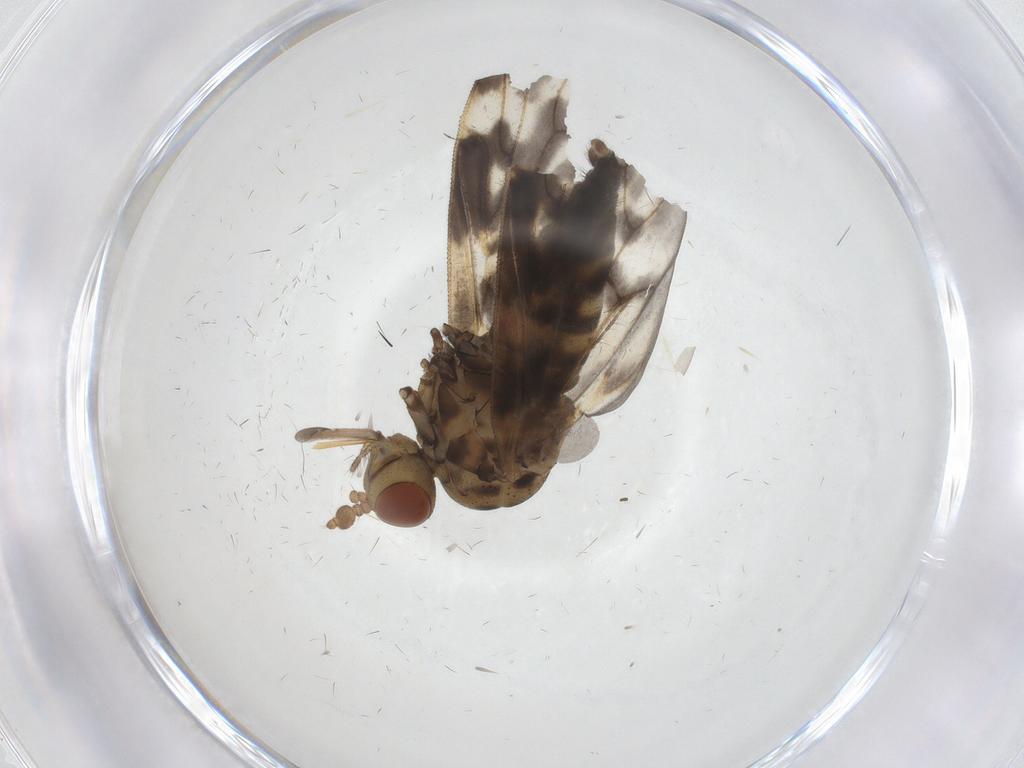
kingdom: Animalia
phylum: Arthropoda
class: Insecta
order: Diptera
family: Austroleptidae
